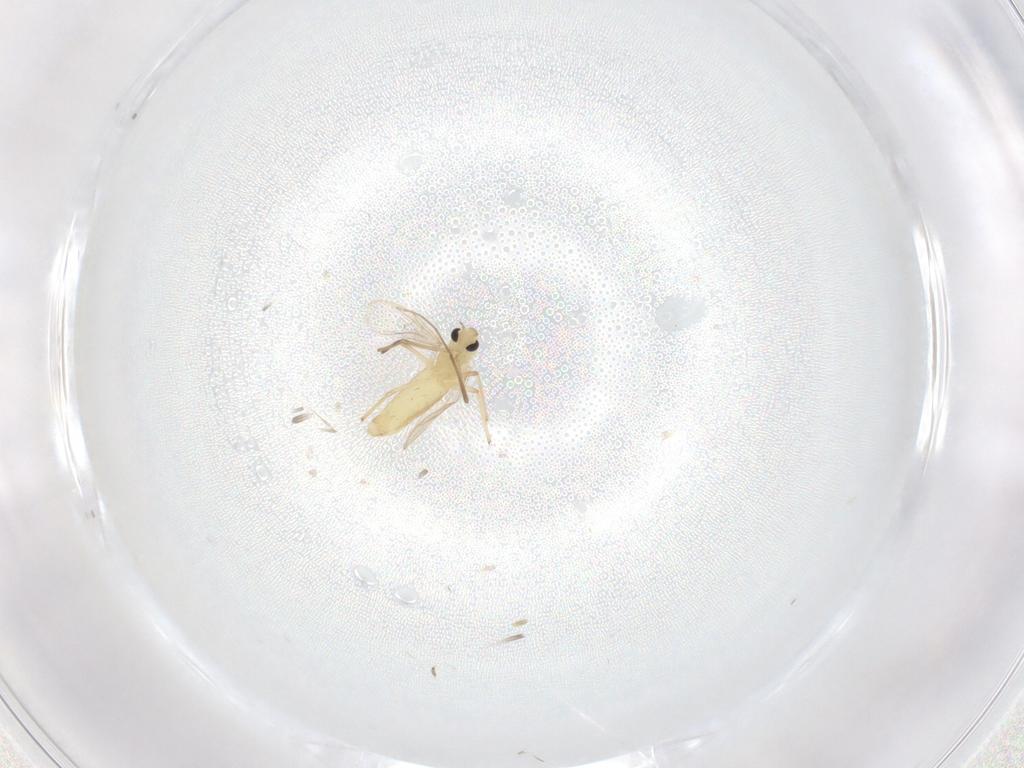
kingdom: Animalia
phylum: Arthropoda
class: Insecta
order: Diptera
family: Chironomidae
